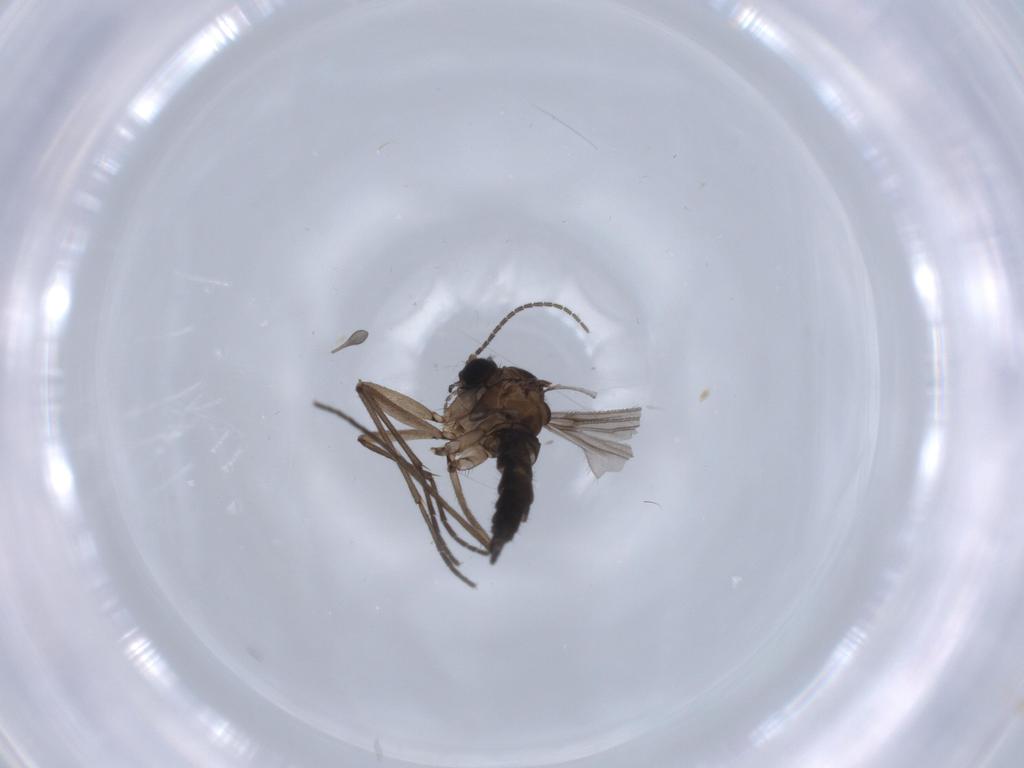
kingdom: Animalia
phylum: Arthropoda
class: Insecta
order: Diptera
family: Sciaridae
